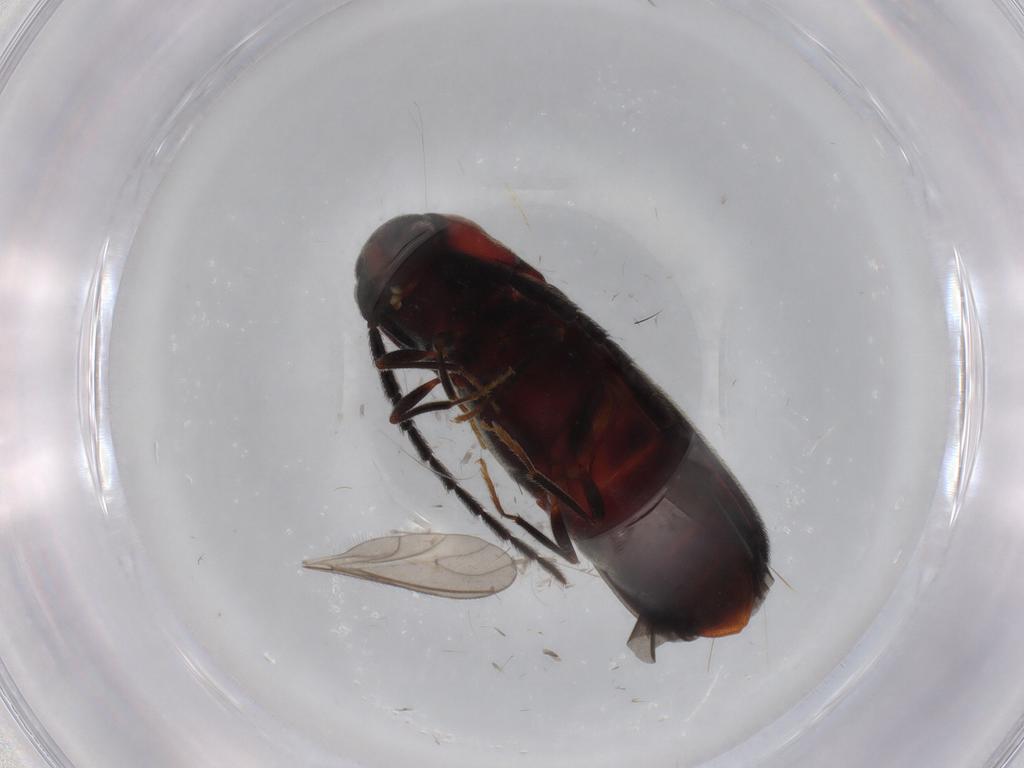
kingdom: Animalia
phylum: Arthropoda
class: Insecta
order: Coleoptera
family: Eucnemidae
